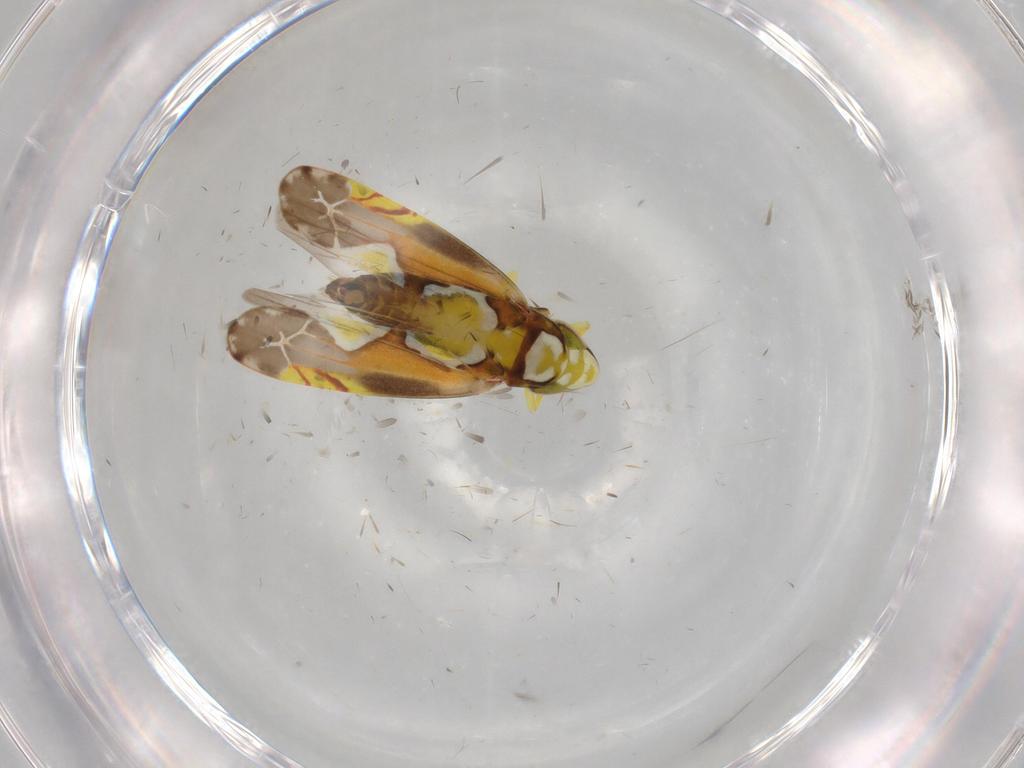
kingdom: Animalia
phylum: Arthropoda
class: Insecta
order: Hemiptera
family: Cicadellidae
